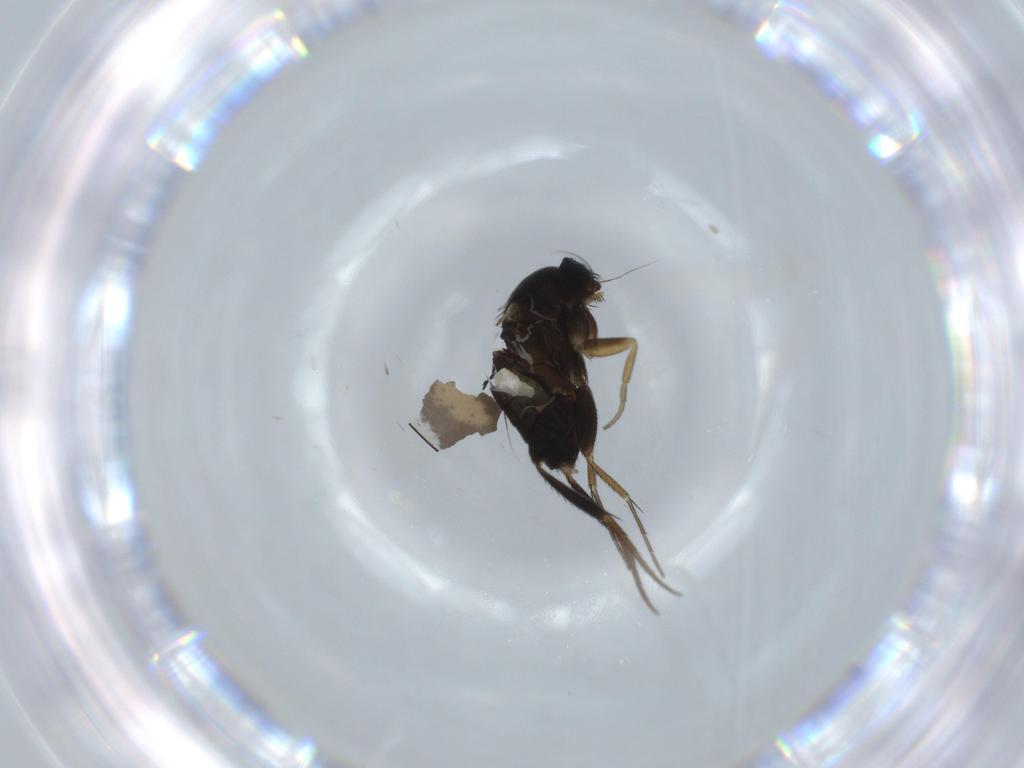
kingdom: Animalia
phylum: Arthropoda
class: Insecta
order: Diptera
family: Phoridae
